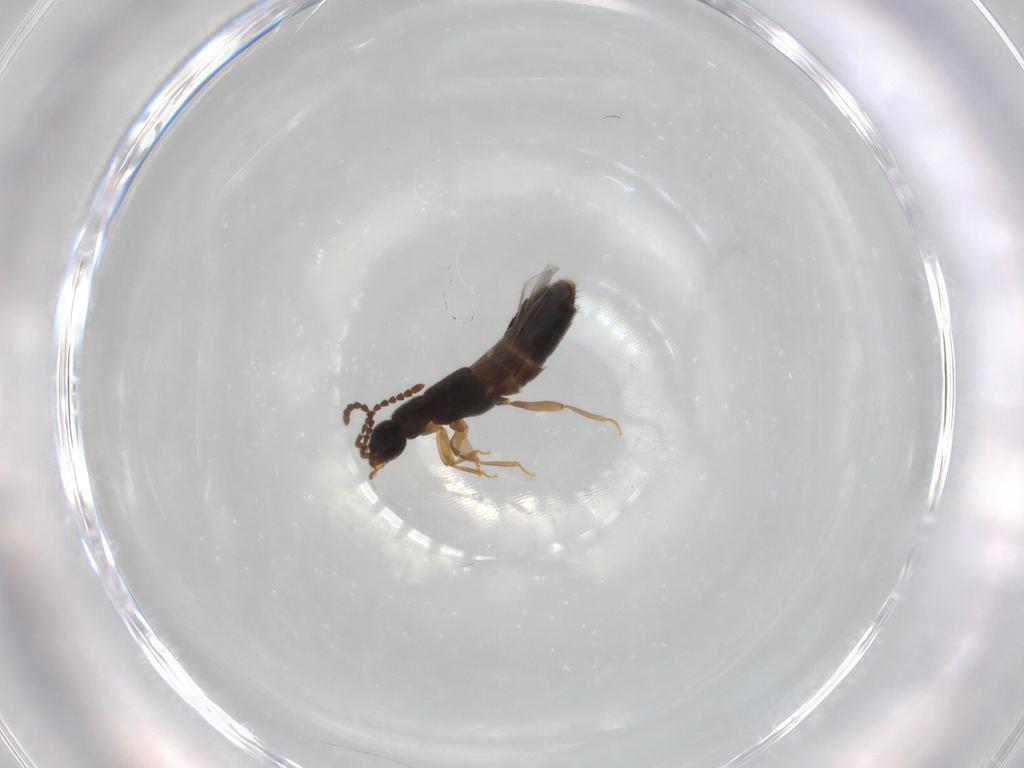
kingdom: Animalia
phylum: Arthropoda
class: Insecta
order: Coleoptera
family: Staphylinidae
